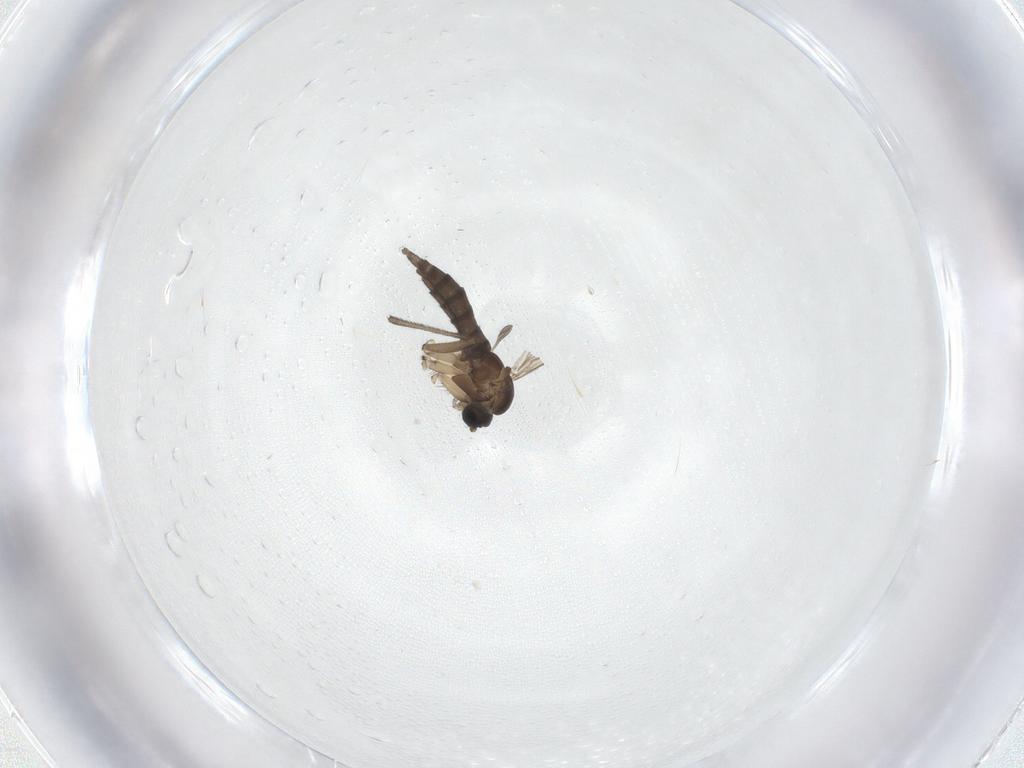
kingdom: Animalia
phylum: Arthropoda
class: Insecta
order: Diptera
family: Sciaridae
